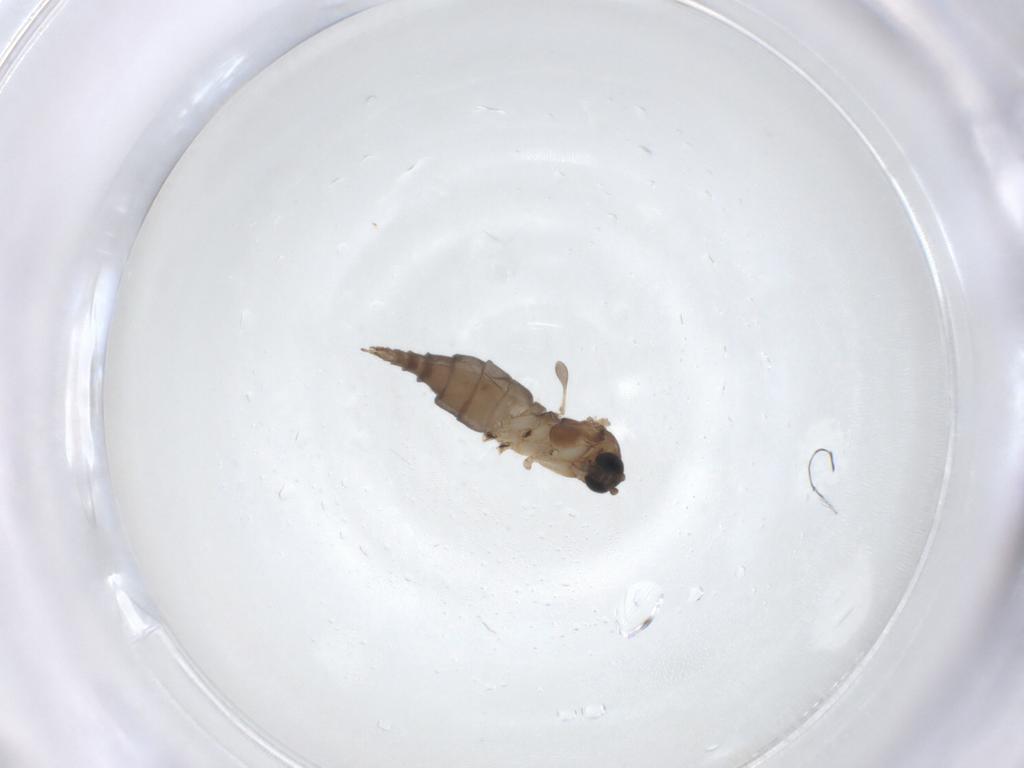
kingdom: Animalia
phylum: Arthropoda
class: Insecta
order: Diptera
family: Sciaridae
